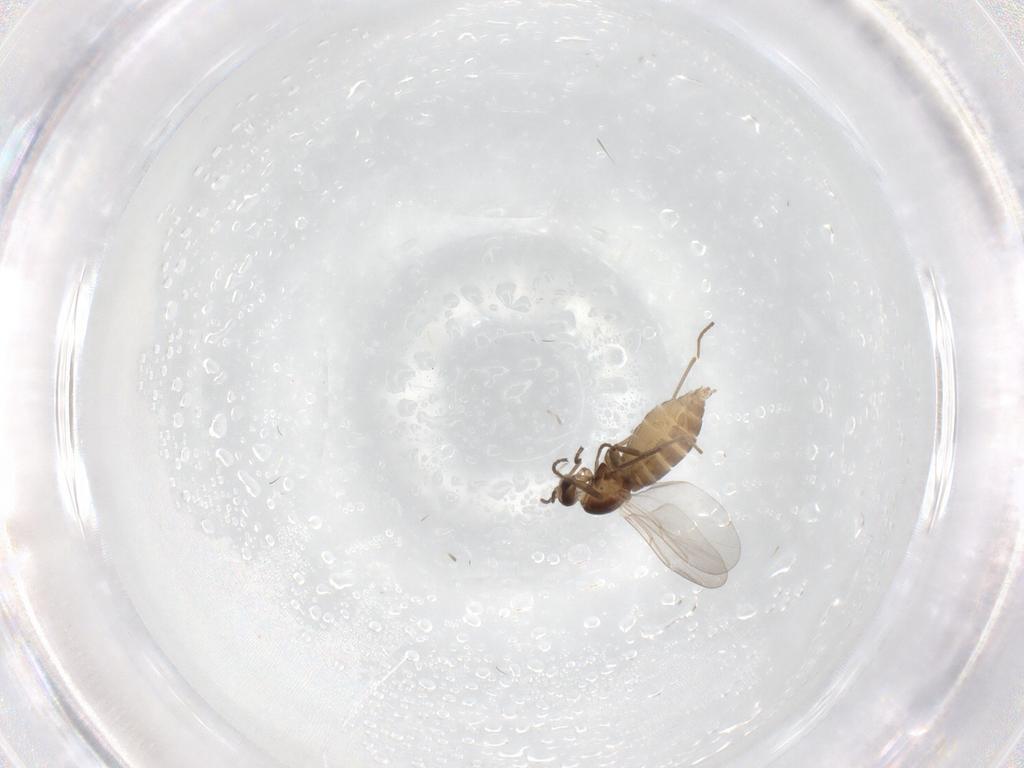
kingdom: Animalia
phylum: Arthropoda
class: Insecta
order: Diptera
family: Cecidomyiidae
